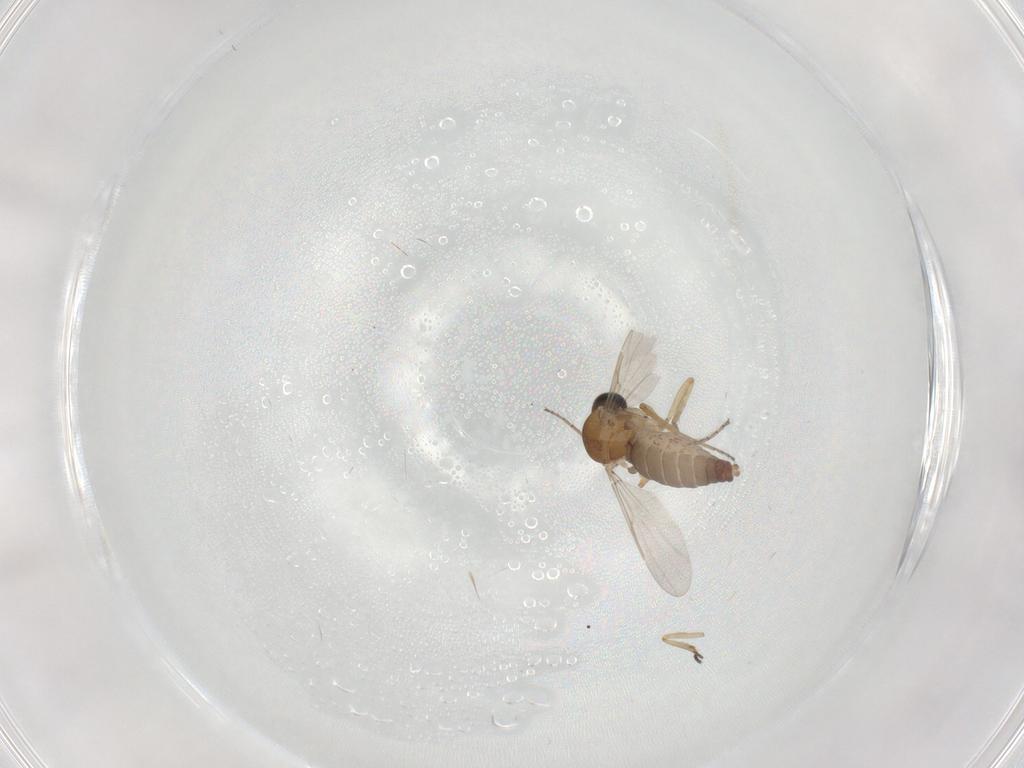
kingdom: Animalia
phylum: Arthropoda
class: Insecta
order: Diptera
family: Ceratopogonidae
